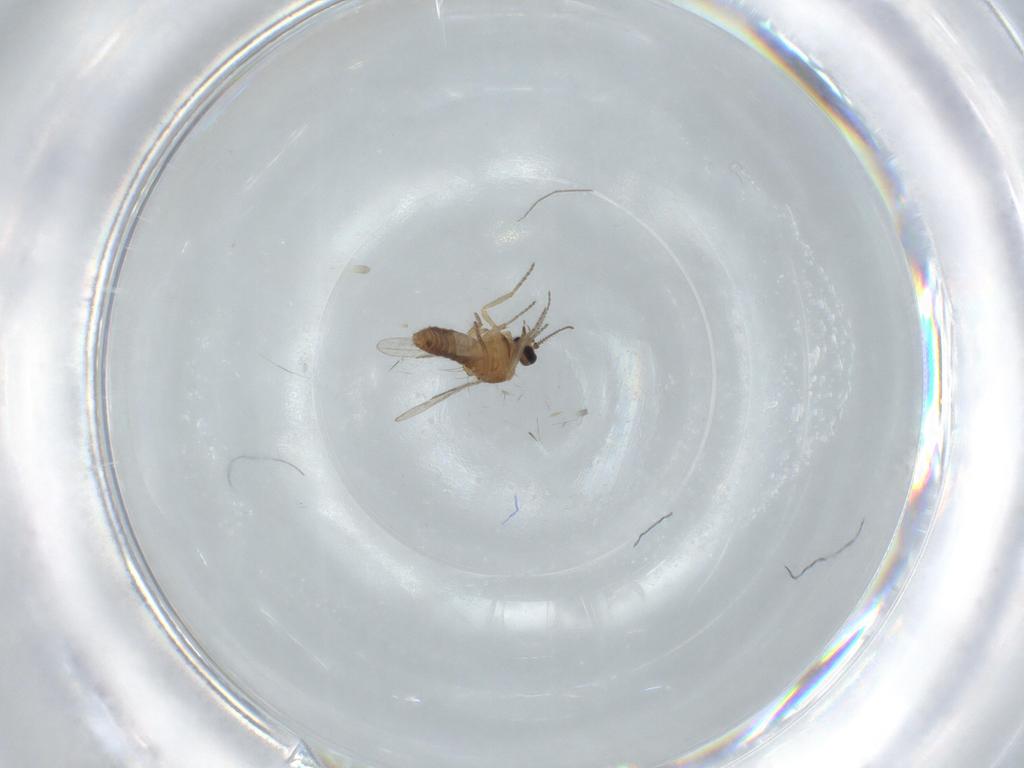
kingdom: Animalia
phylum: Arthropoda
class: Insecta
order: Diptera
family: Ceratopogonidae
